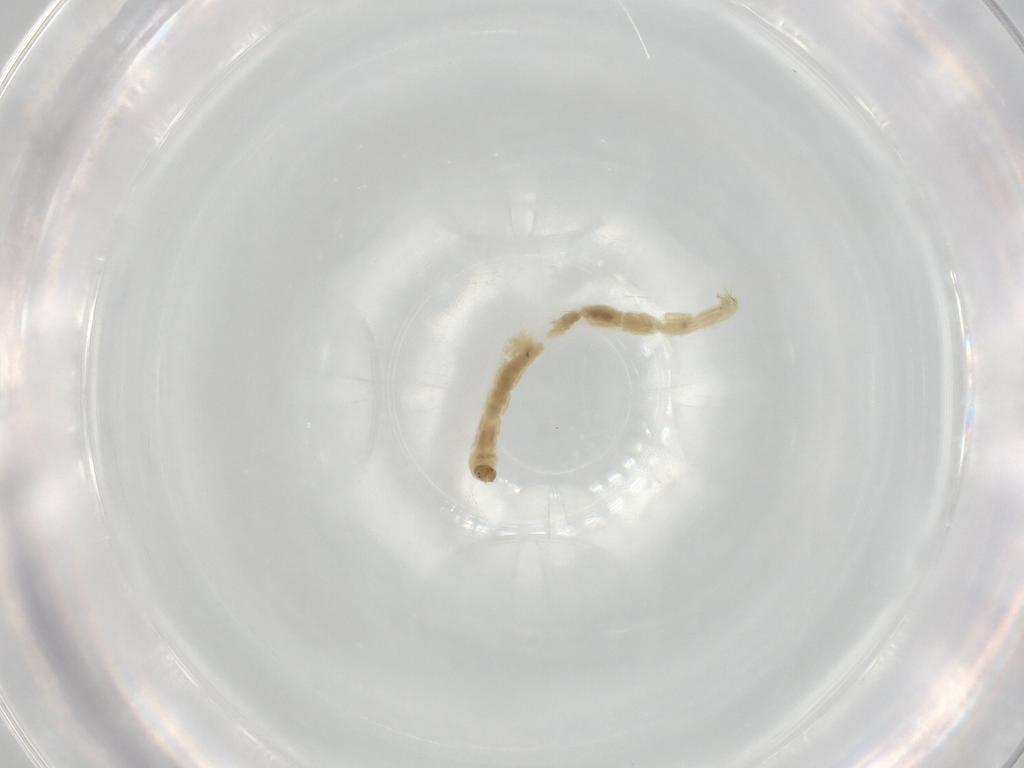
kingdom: Animalia
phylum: Arthropoda
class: Insecta
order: Diptera
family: Chironomidae
